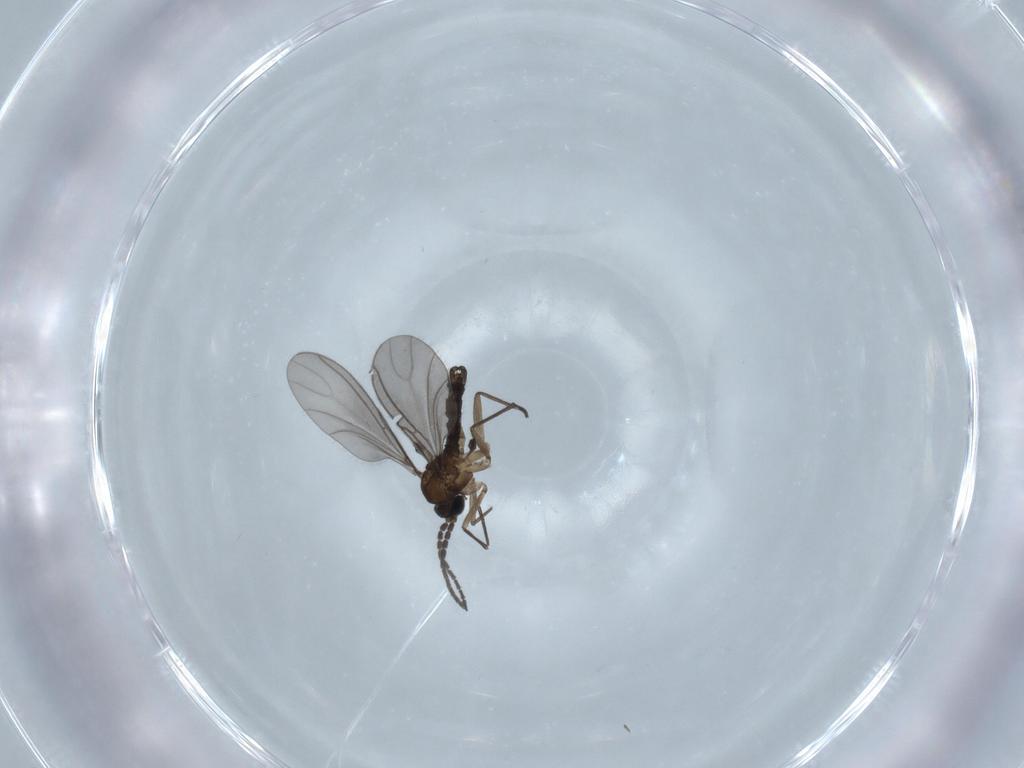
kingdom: Animalia
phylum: Arthropoda
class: Insecta
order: Diptera
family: Sciaridae
